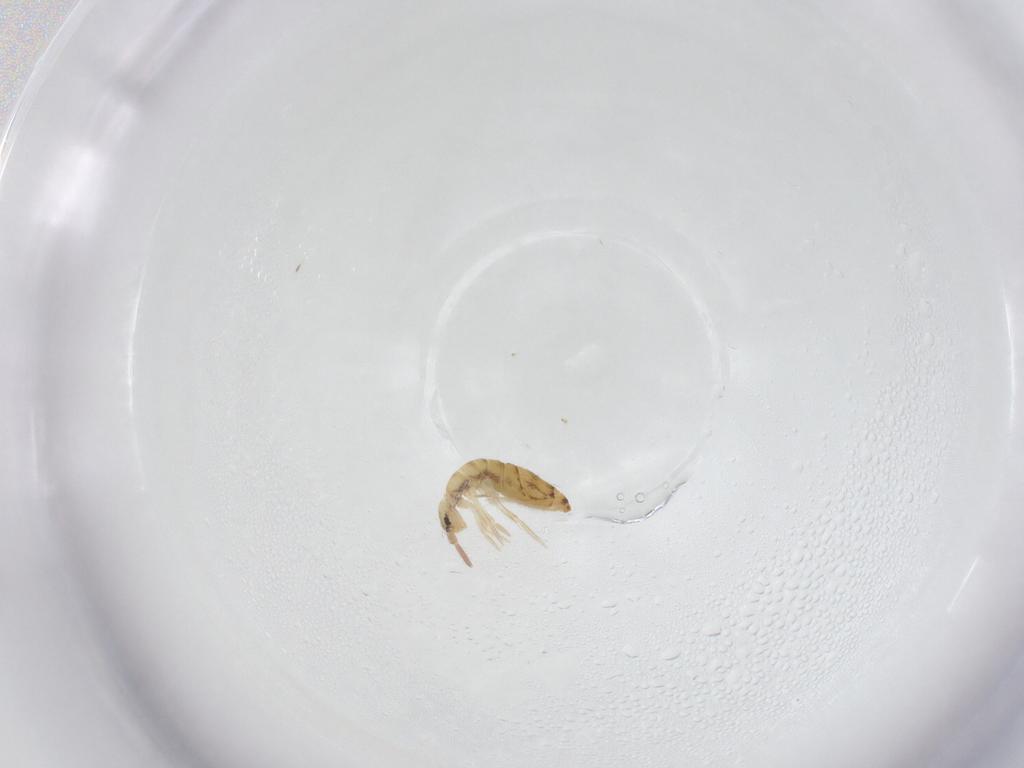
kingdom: Animalia
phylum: Arthropoda
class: Collembola
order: Entomobryomorpha
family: Entomobryidae
